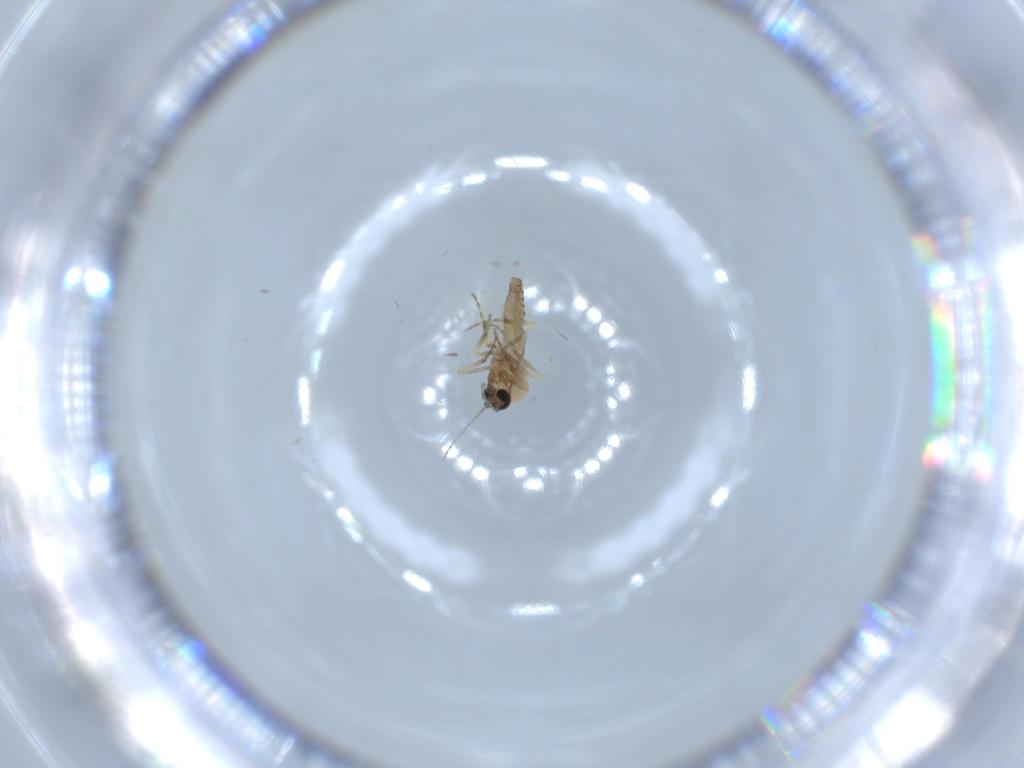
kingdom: Animalia
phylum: Arthropoda
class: Insecta
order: Diptera
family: Ceratopogonidae
